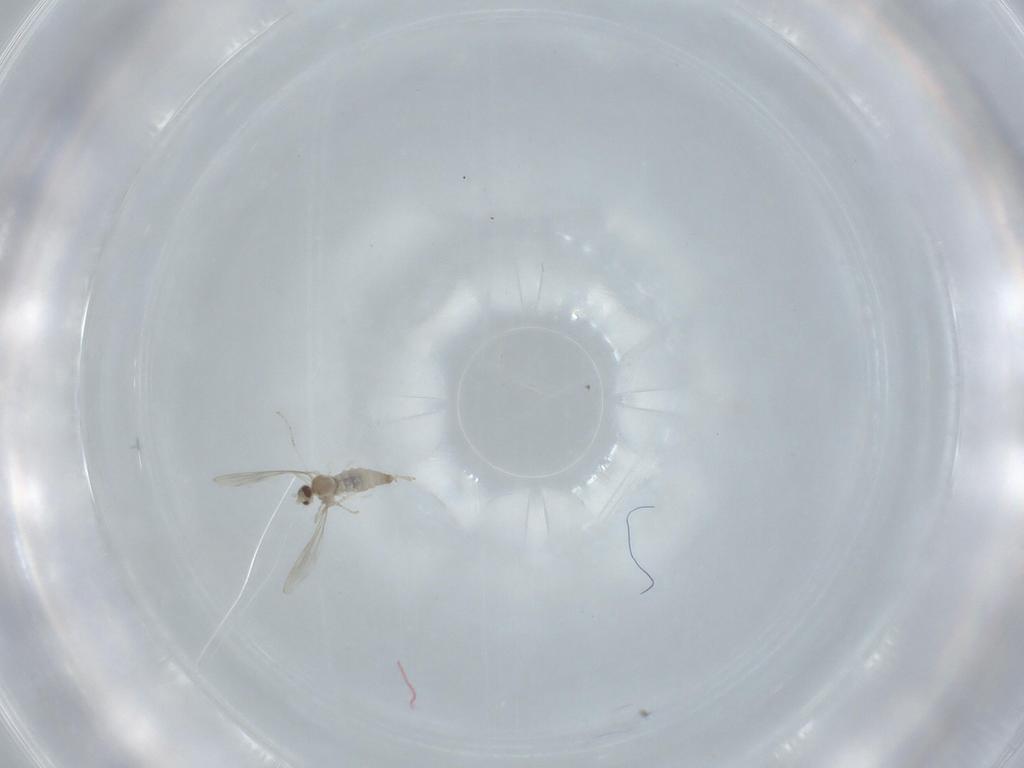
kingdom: Animalia
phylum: Arthropoda
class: Insecta
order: Diptera
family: Cecidomyiidae
